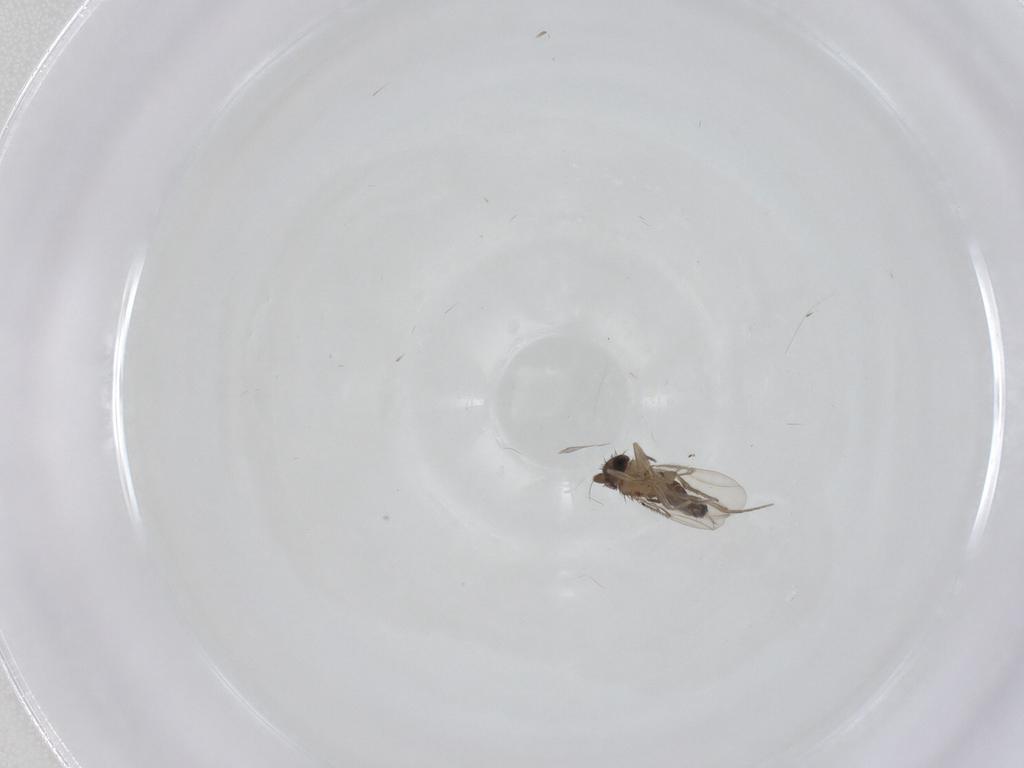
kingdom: Animalia
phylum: Arthropoda
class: Insecta
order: Diptera
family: Phoridae
